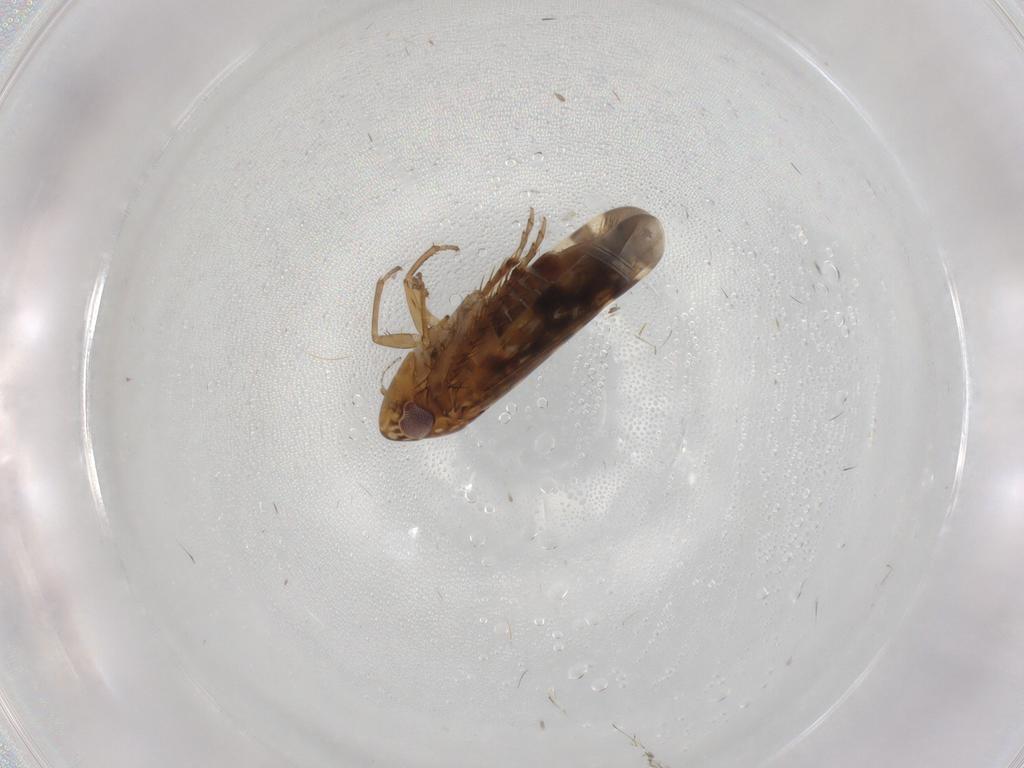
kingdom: Animalia
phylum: Arthropoda
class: Insecta
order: Hemiptera
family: Cicadellidae
